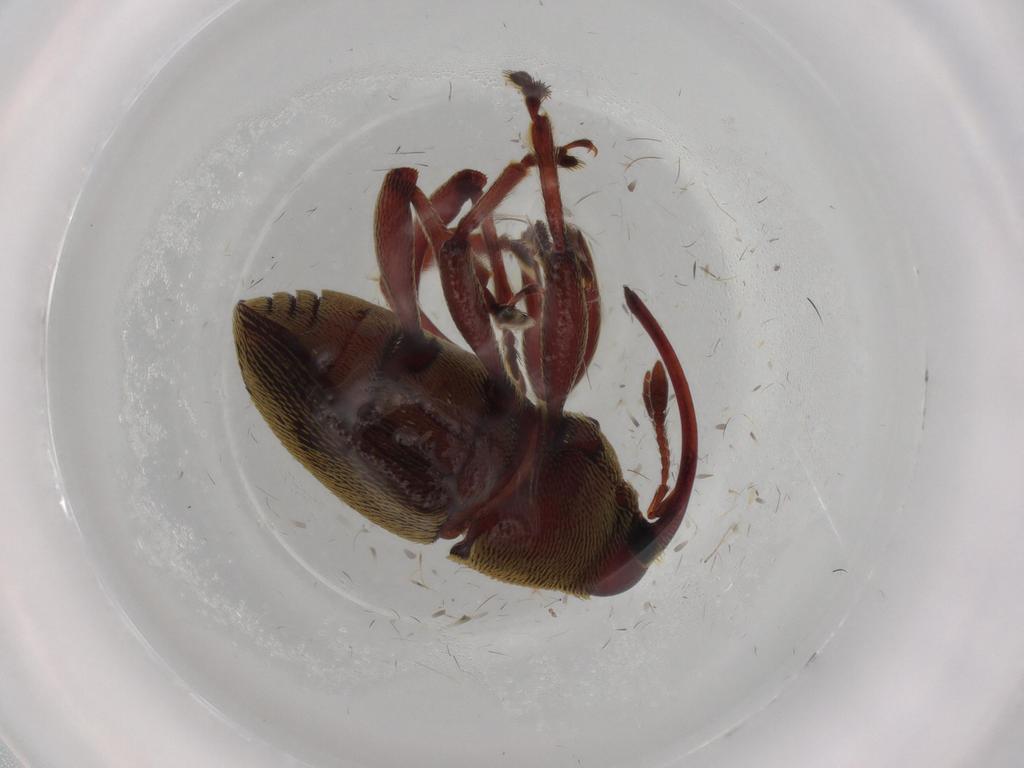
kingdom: Animalia
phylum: Arthropoda
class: Insecta
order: Coleoptera
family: Curculionidae
